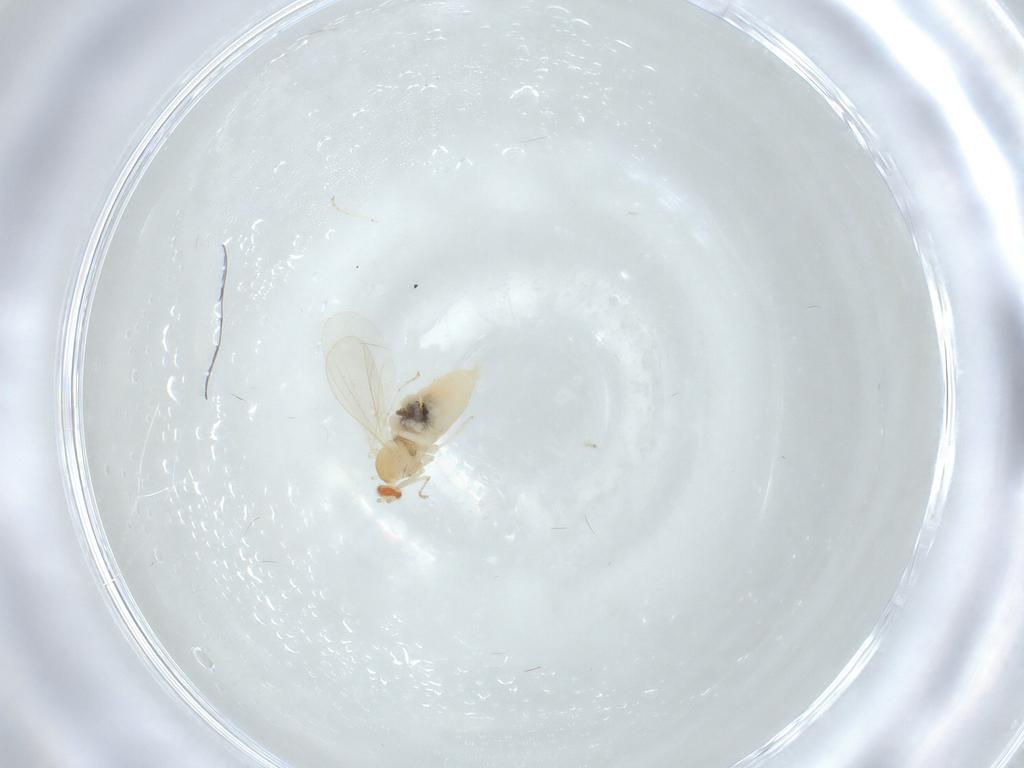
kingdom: Animalia
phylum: Arthropoda
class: Insecta
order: Diptera
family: Cecidomyiidae
